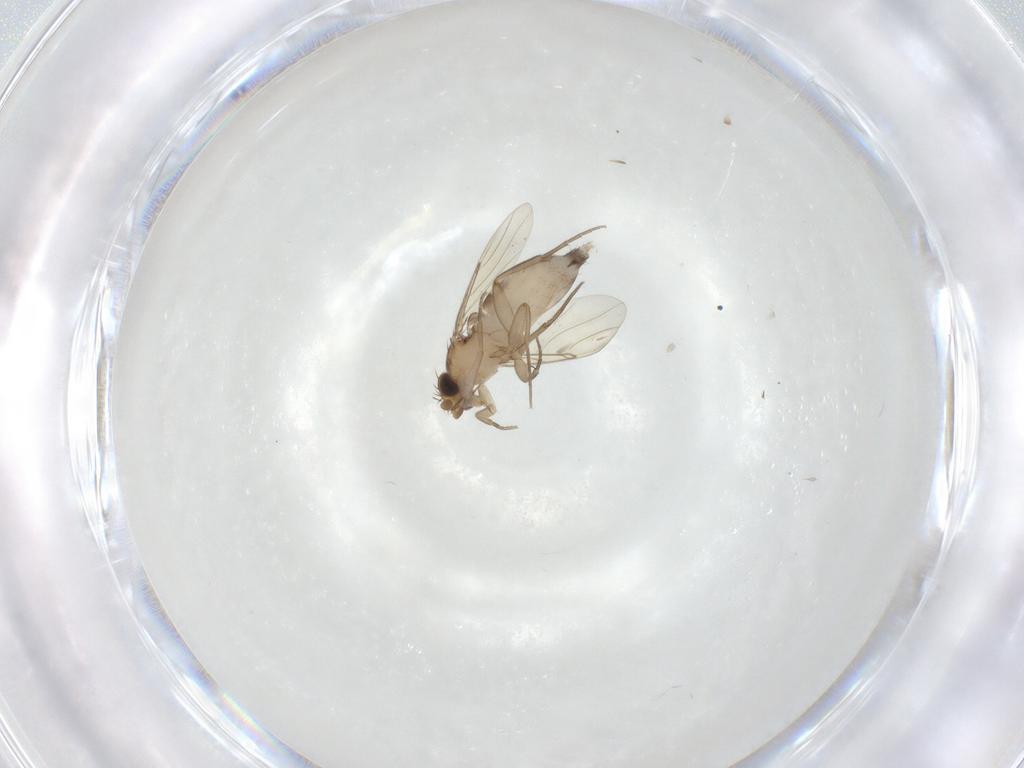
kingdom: Animalia
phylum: Arthropoda
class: Insecta
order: Diptera
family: Phoridae
